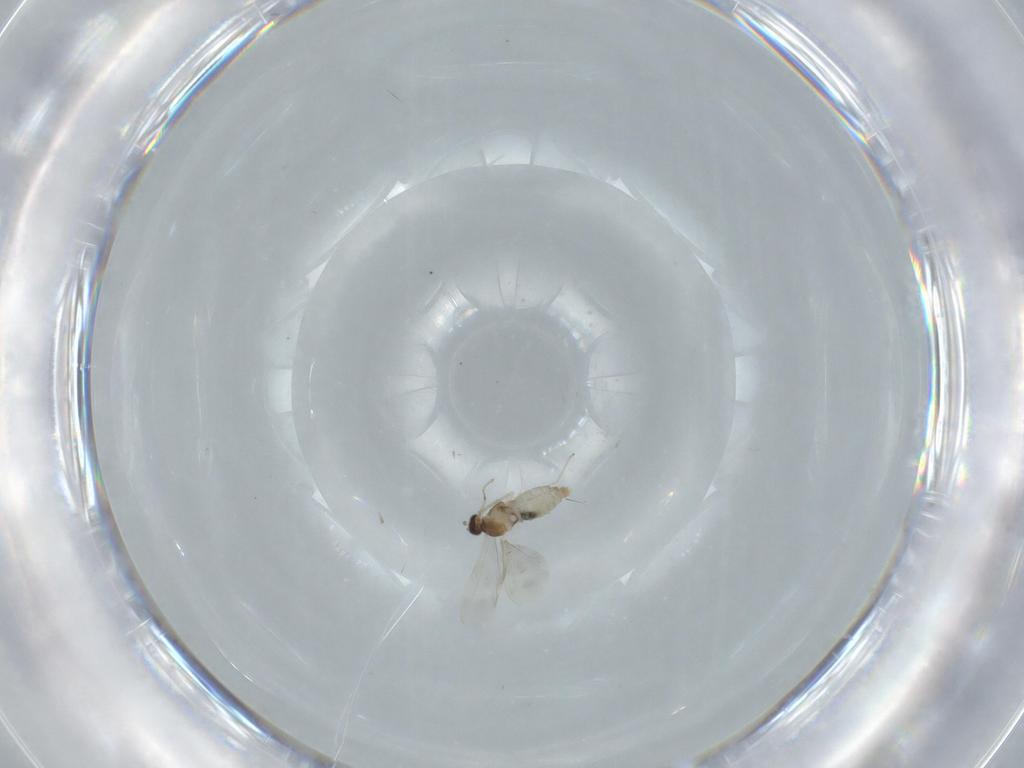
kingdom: Animalia
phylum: Arthropoda
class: Insecta
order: Diptera
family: Cecidomyiidae
